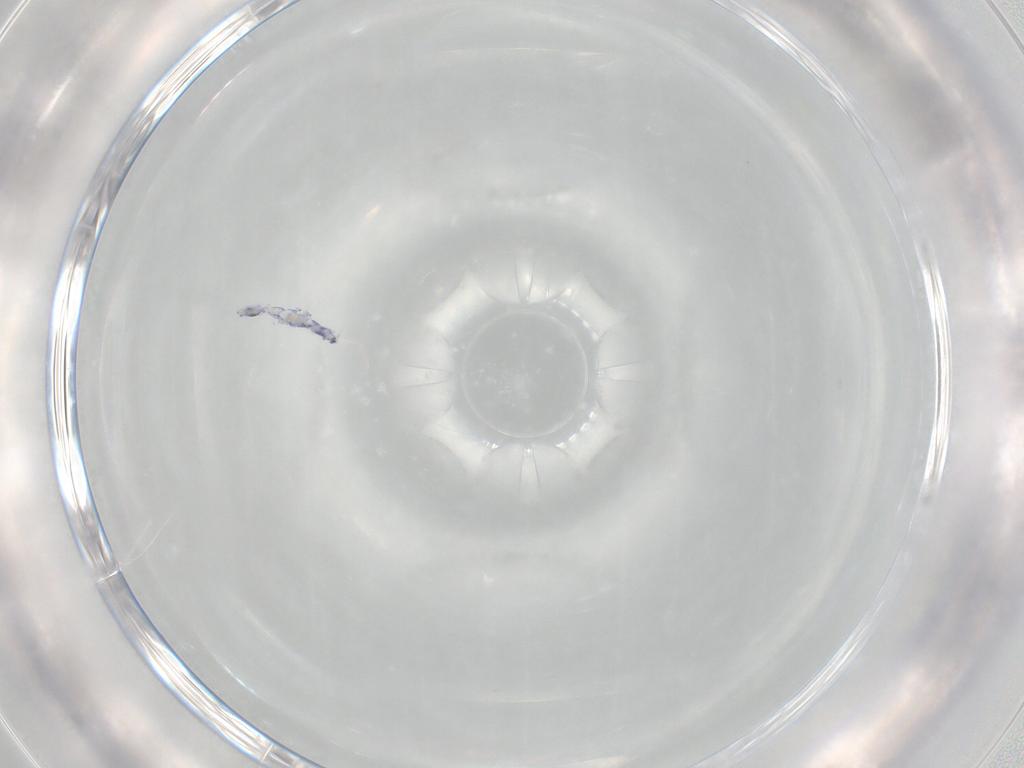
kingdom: Animalia
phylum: Arthropoda
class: Collembola
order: Entomobryomorpha
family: Entomobryidae
